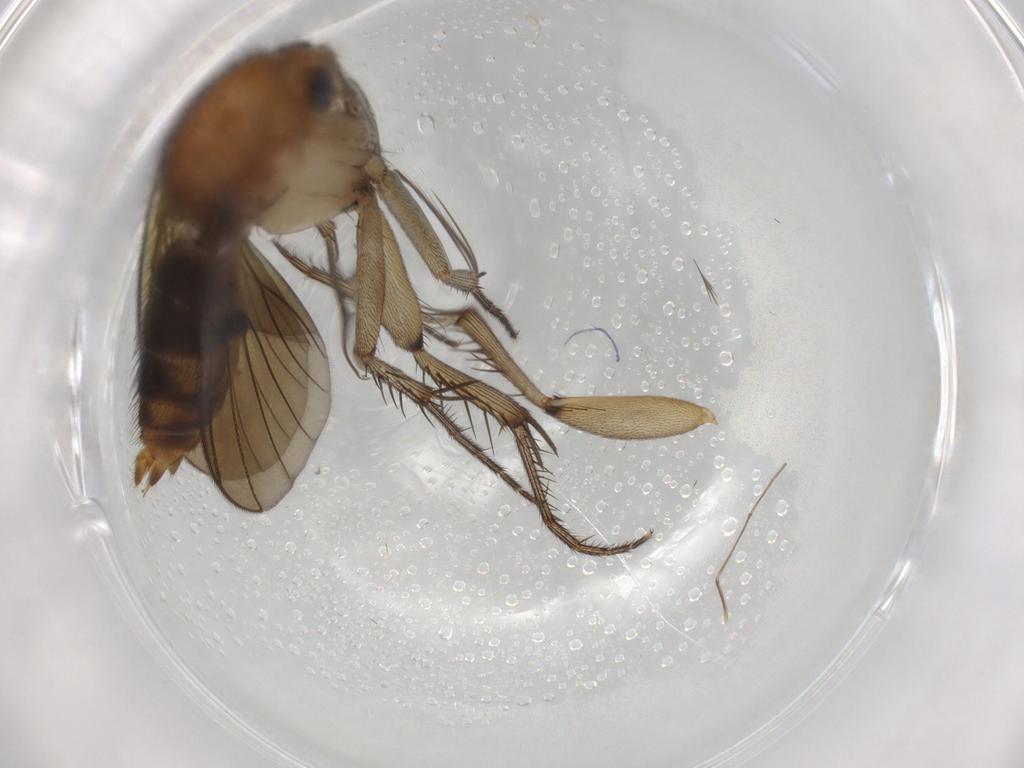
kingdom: Animalia
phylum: Arthropoda
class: Insecta
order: Diptera
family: Mycetophilidae
